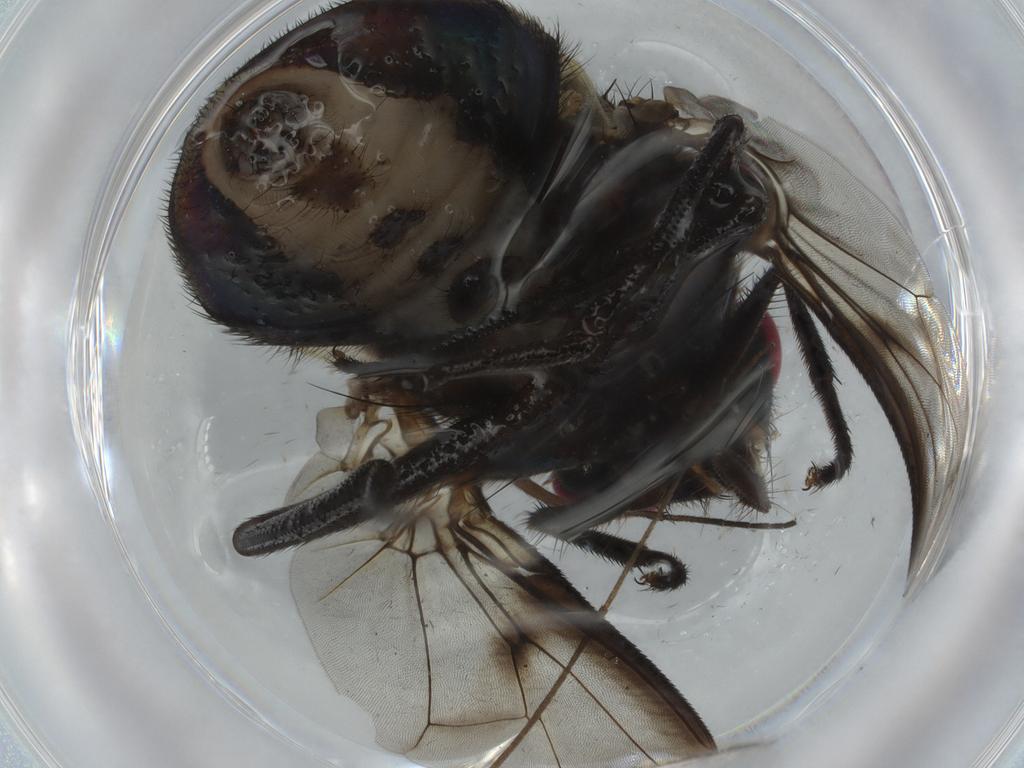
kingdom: Animalia
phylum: Arthropoda
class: Insecta
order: Diptera
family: Muscidae
